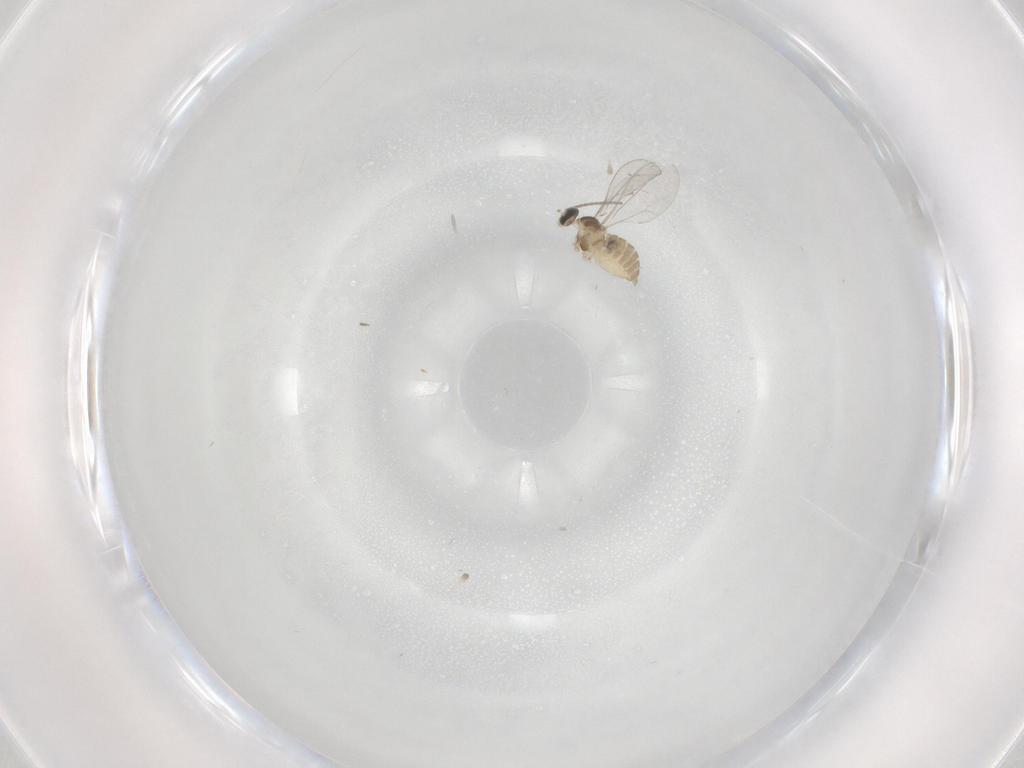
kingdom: Animalia
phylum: Arthropoda
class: Insecta
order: Diptera
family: Cecidomyiidae
